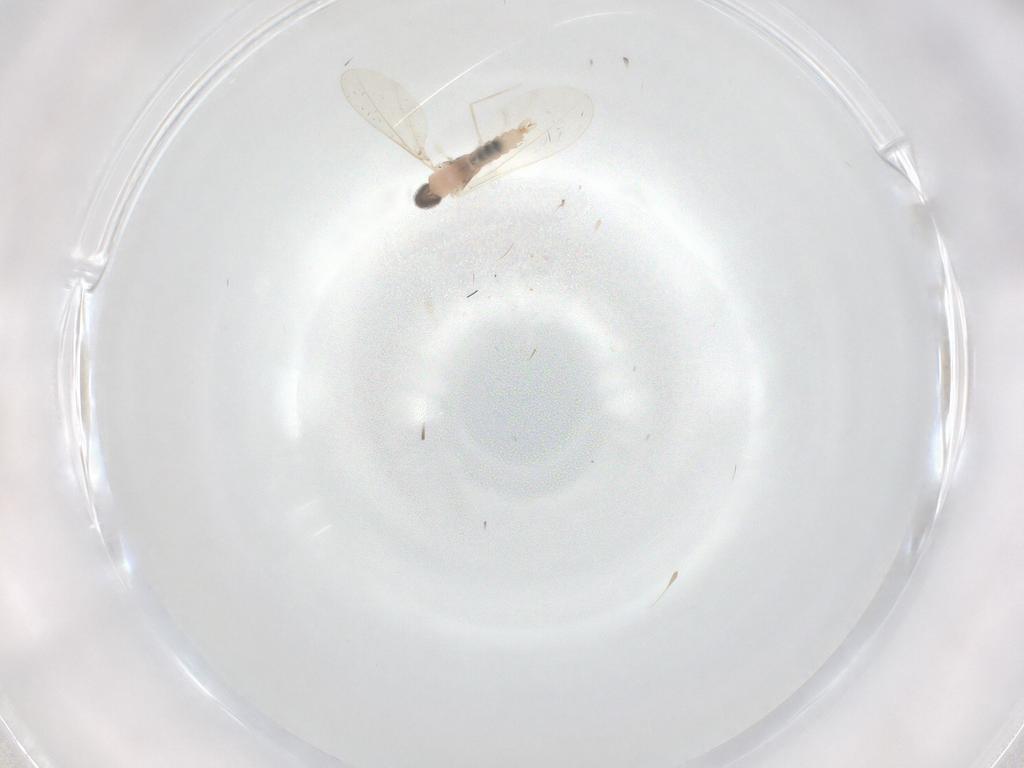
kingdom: Animalia
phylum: Arthropoda
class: Insecta
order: Diptera
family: Cecidomyiidae
